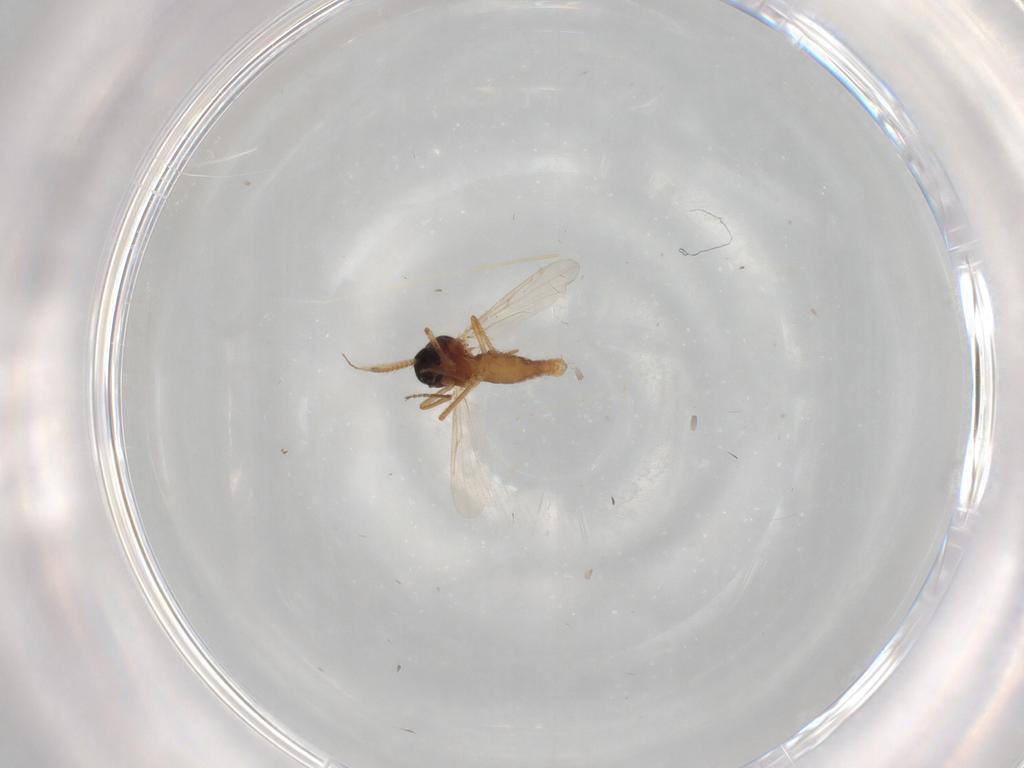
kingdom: Animalia
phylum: Arthropoda
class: Insecta
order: Diptera
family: Cecidomyiidae
